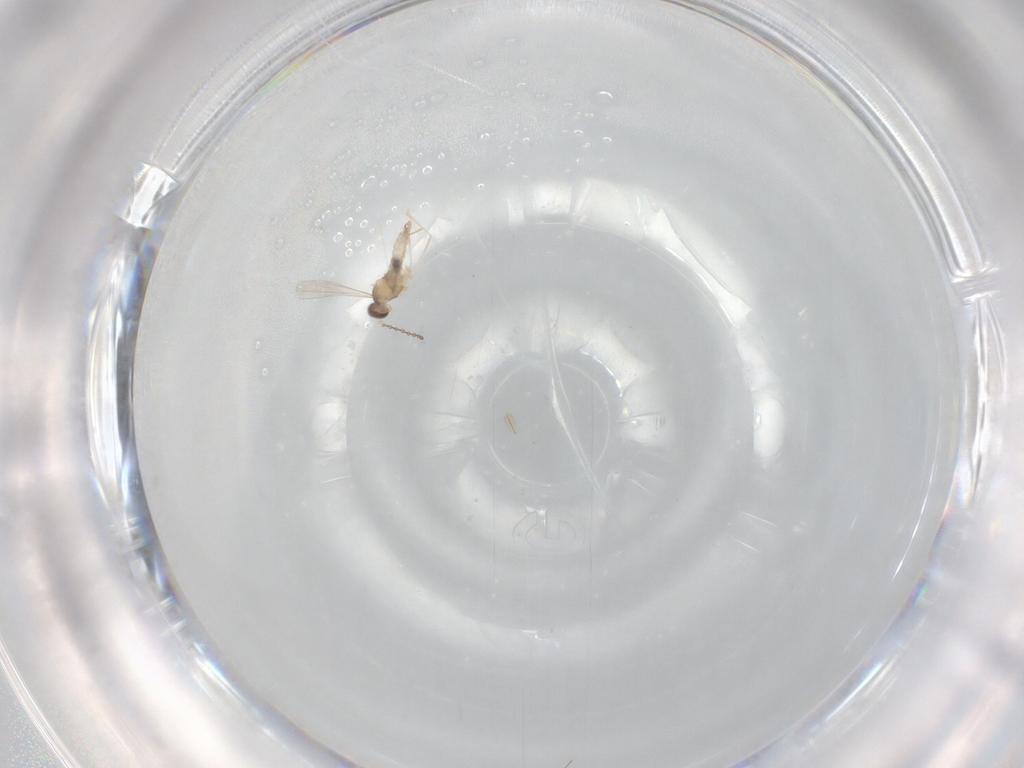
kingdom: Animalia
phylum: Arthropoda
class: Insecta
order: Diptera
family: Cecidomyiidae
